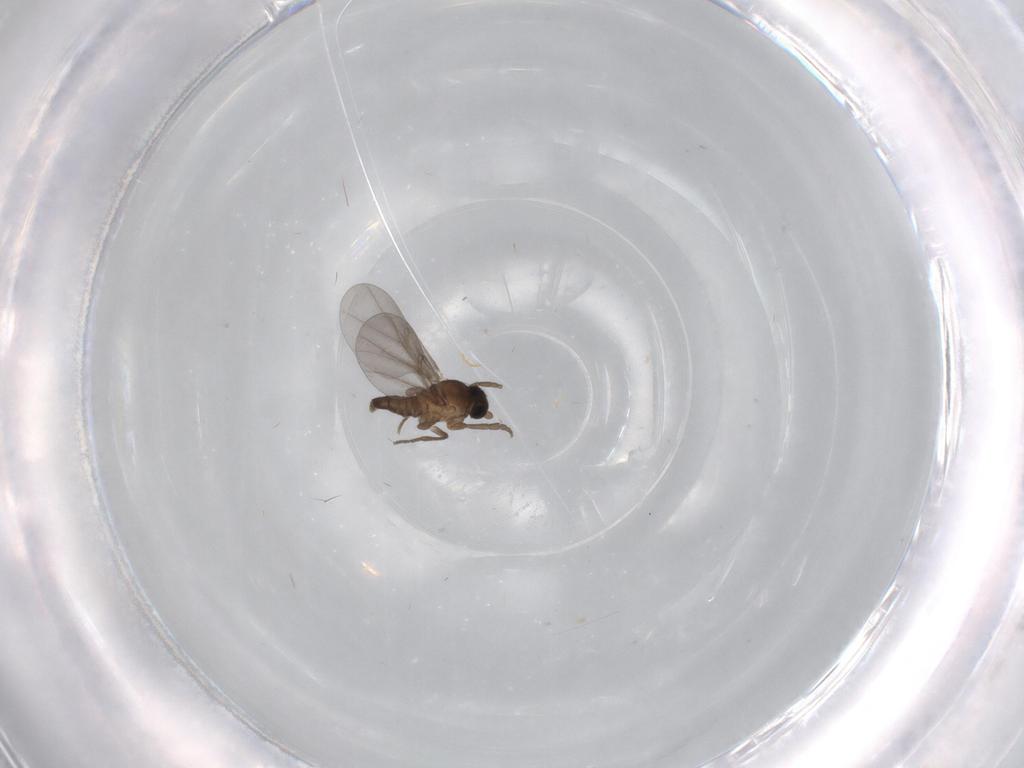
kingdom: Animalia
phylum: Arthropoda
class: Insecta
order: Diptera
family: Phoridae
